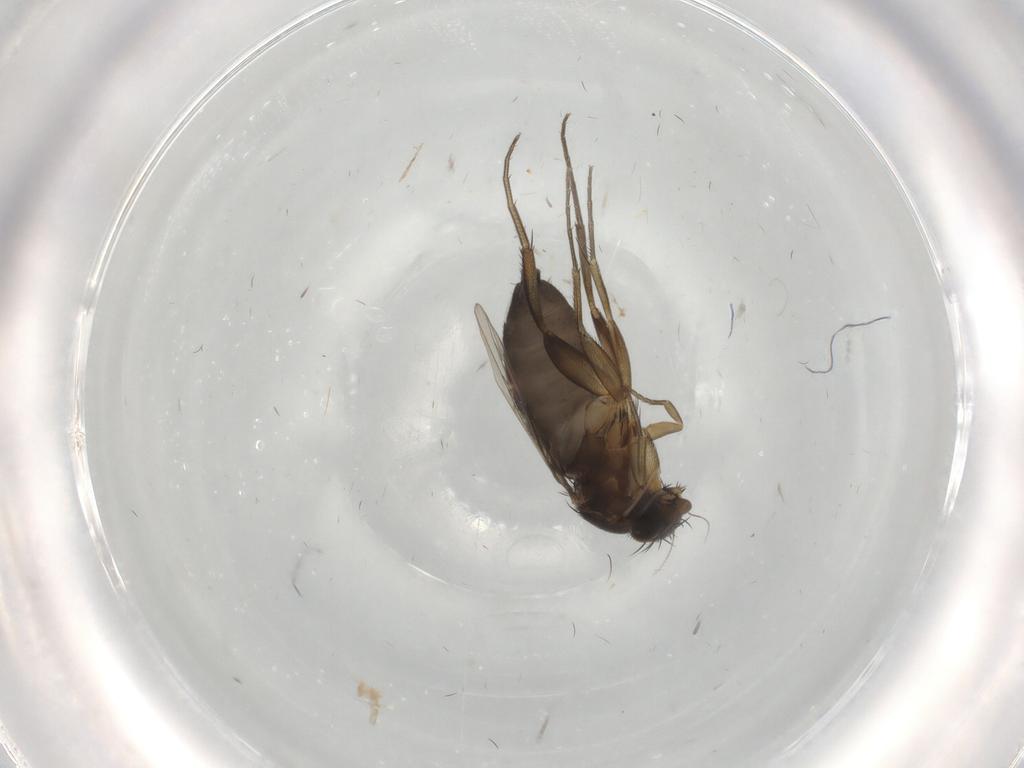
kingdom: Animalia
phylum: Arthropoda
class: Insecta
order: Diptera
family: Phoridae
